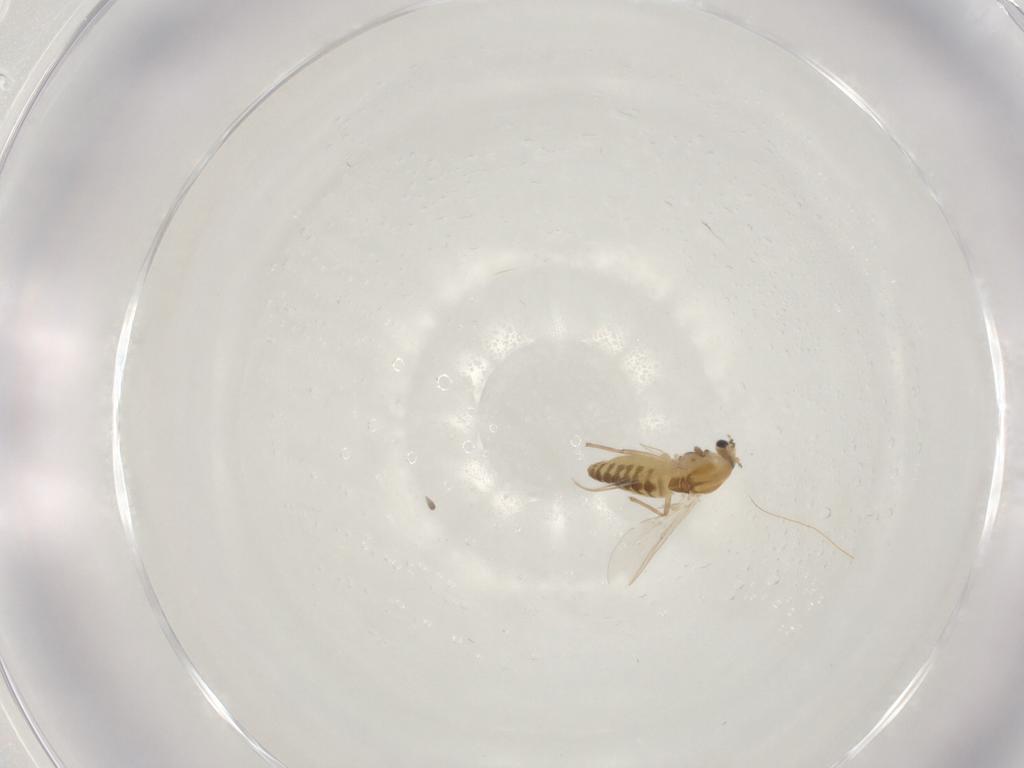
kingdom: Animalia
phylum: Arthropoda
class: Insecta
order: Diptera
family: Chironomidae
